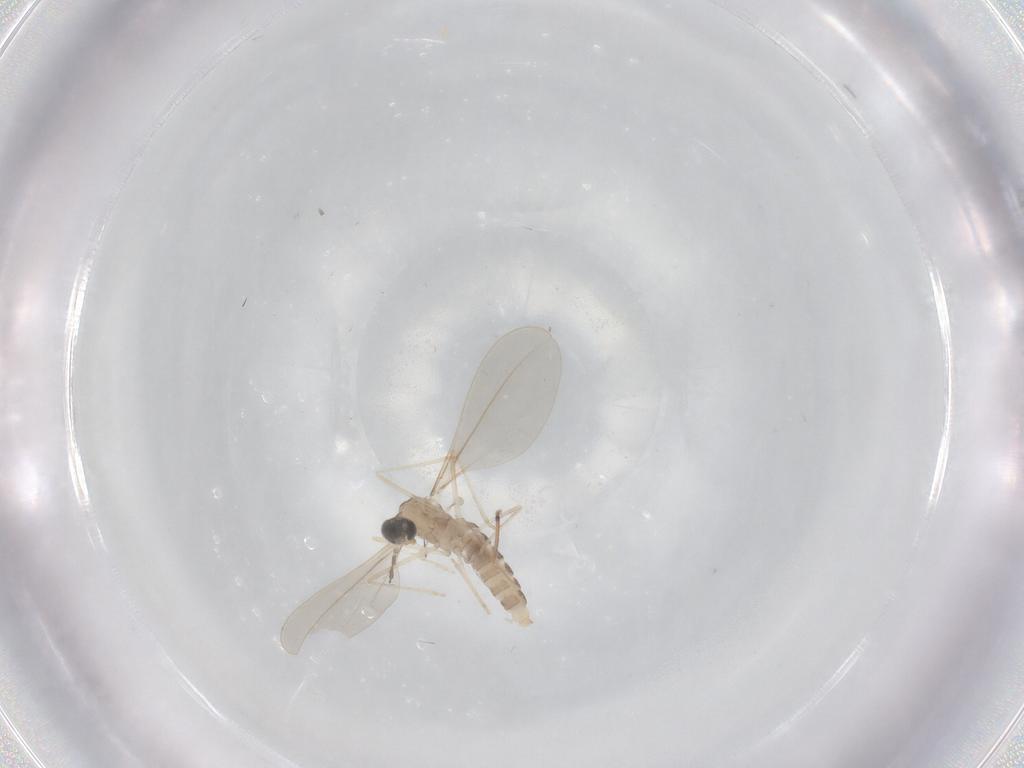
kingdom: Animalia
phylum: Arthropoda
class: Insecta
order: Diptera
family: Cecidomyiidae
